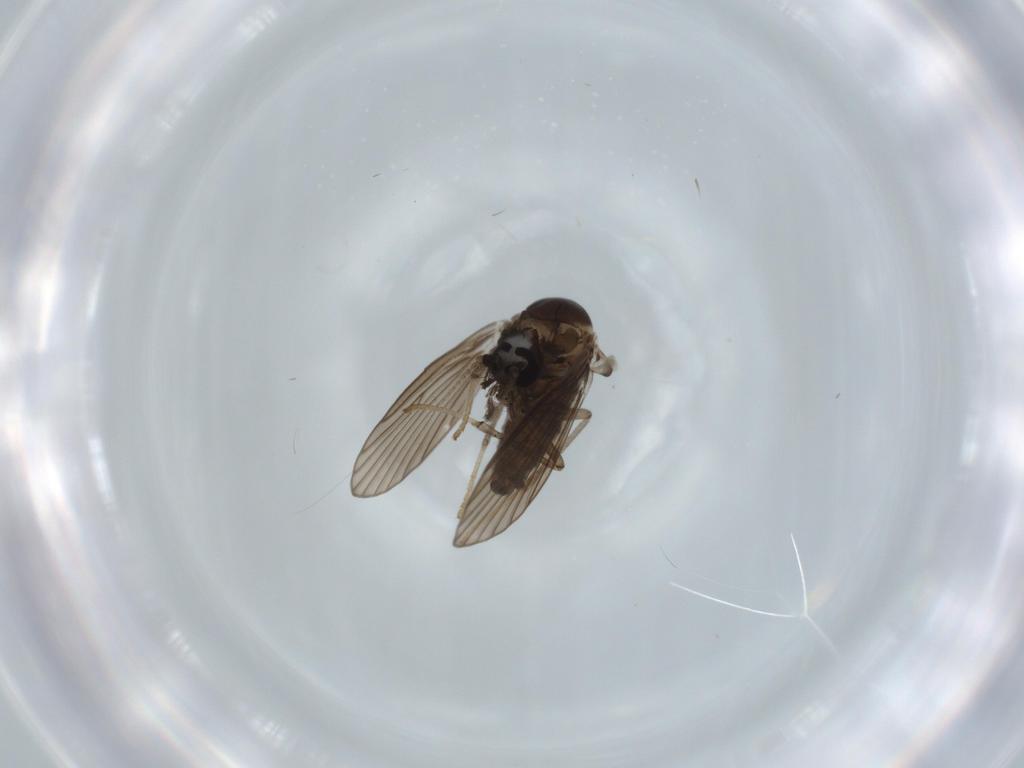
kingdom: Animalia
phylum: Arthropoda
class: Insecta
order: Diptera
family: Psychodidae
